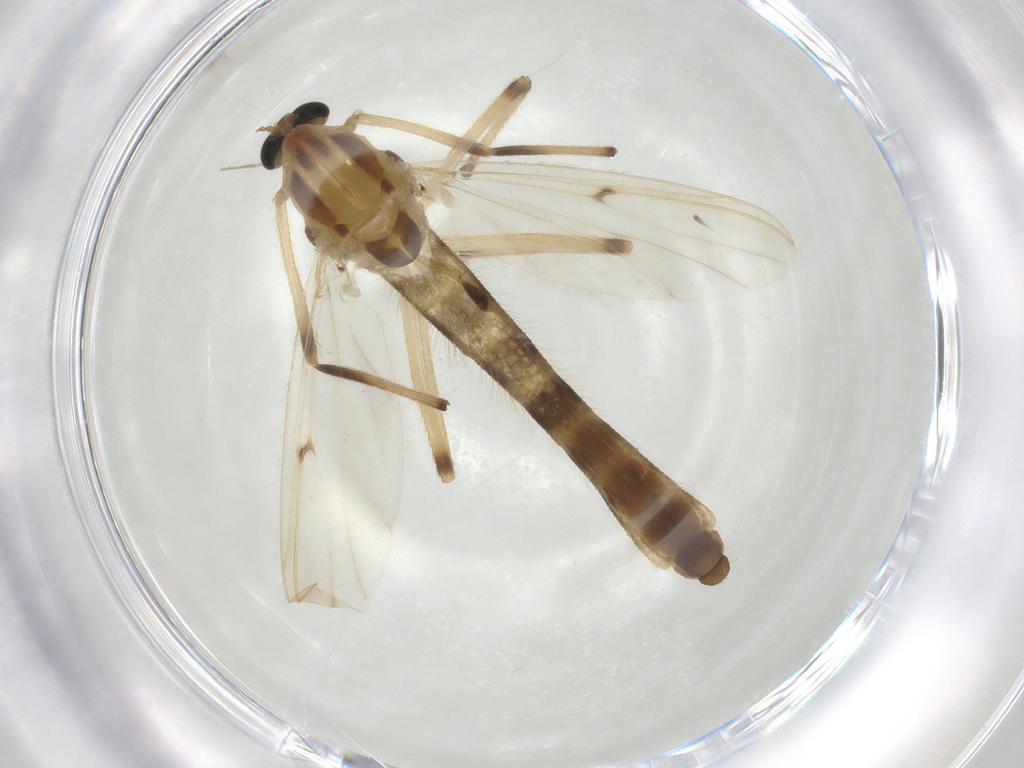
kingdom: Animalia
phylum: Arthropoda
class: Insecta
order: Diptera
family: Chironomidae
